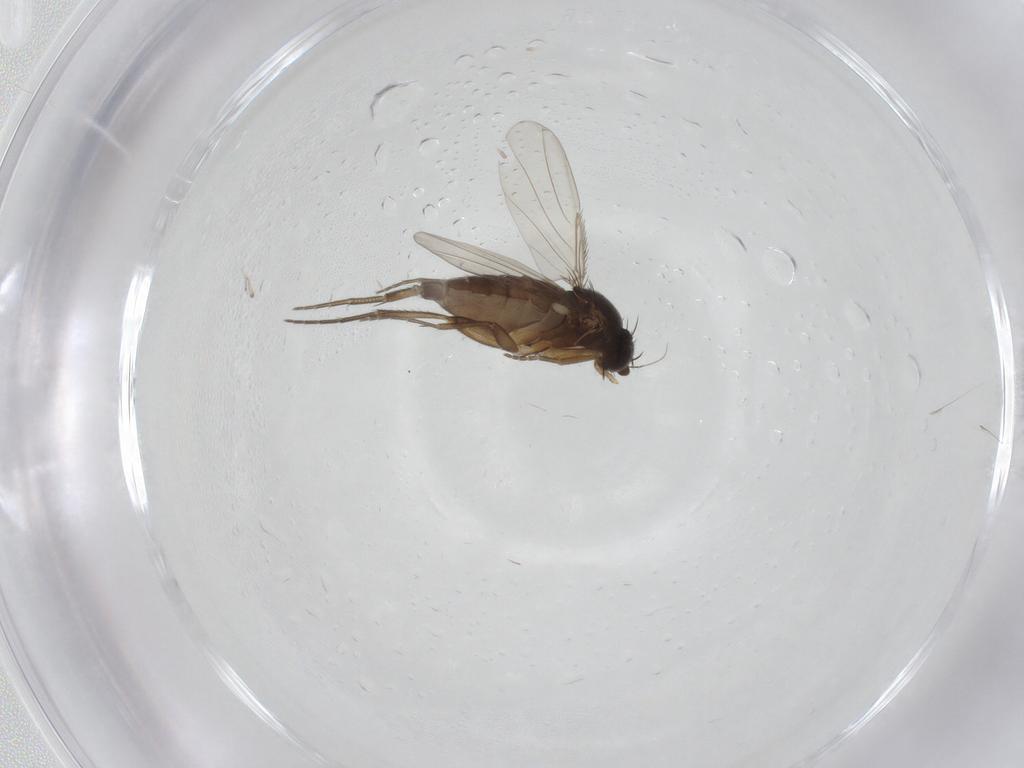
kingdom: Animalia
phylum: Arthropoda
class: Insecta
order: Diptera
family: Phoridae
